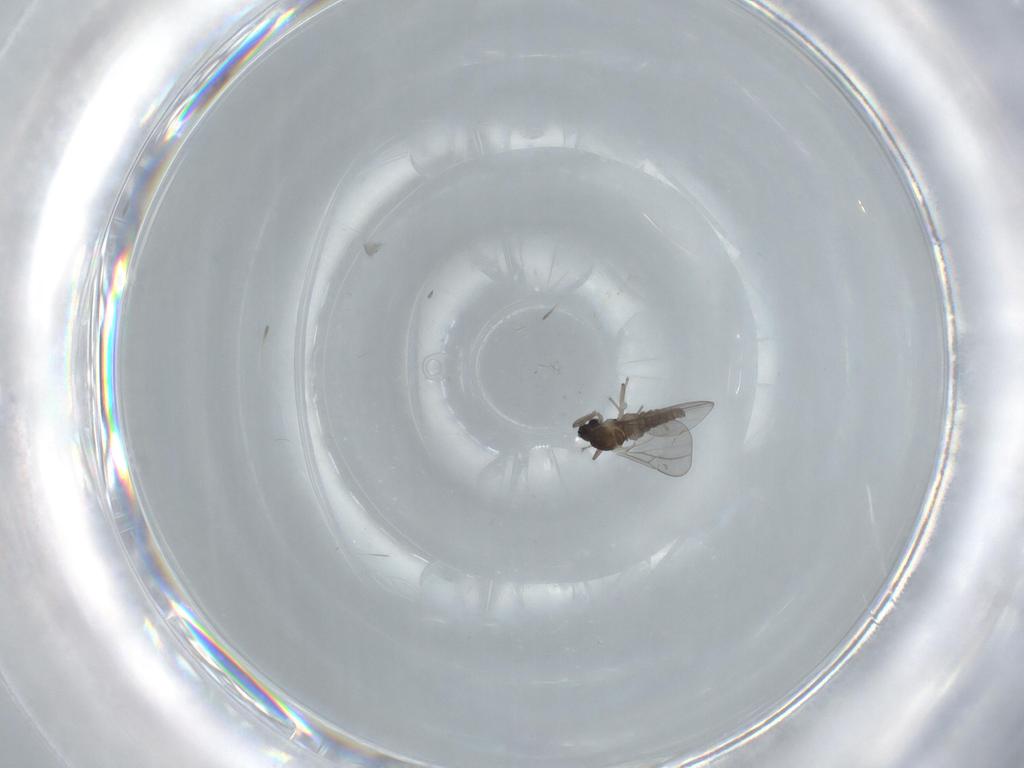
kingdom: Animalia
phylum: Arthropoda
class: Insecta
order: Diptera
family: Cecidomyiidae
